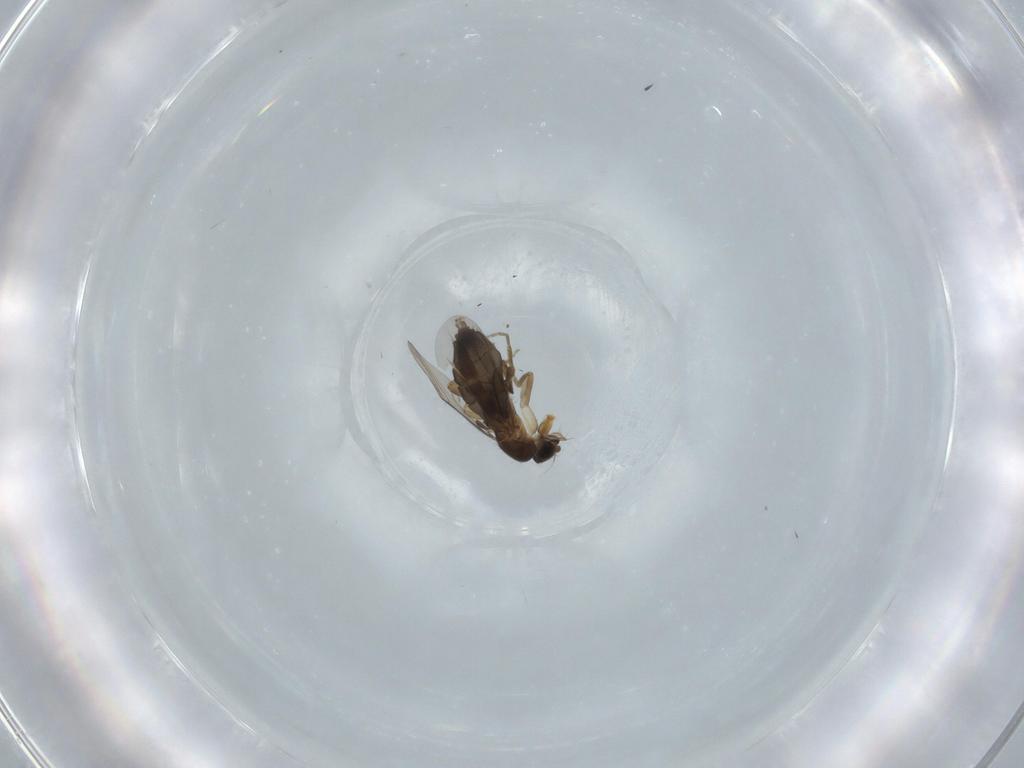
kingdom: Animalia
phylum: Arthropoda
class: Insecta
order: Diptera
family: Phoridae
